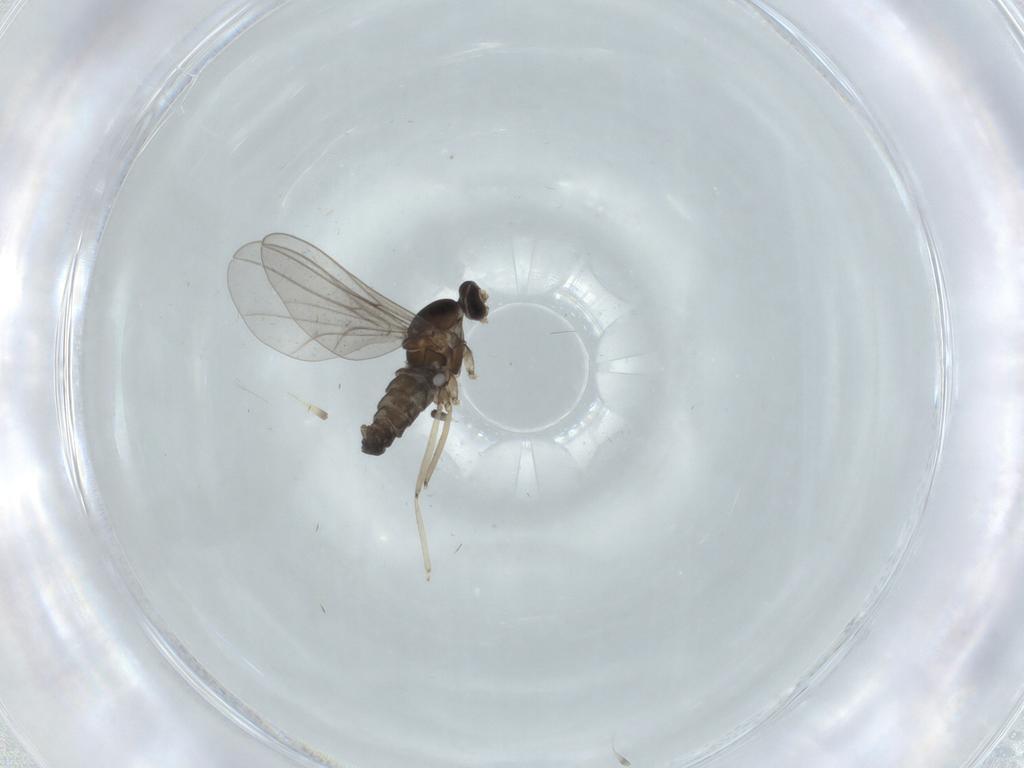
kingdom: Animalia
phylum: Arthropoda
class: Insecta
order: Diptera
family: Cecidomyiidae
